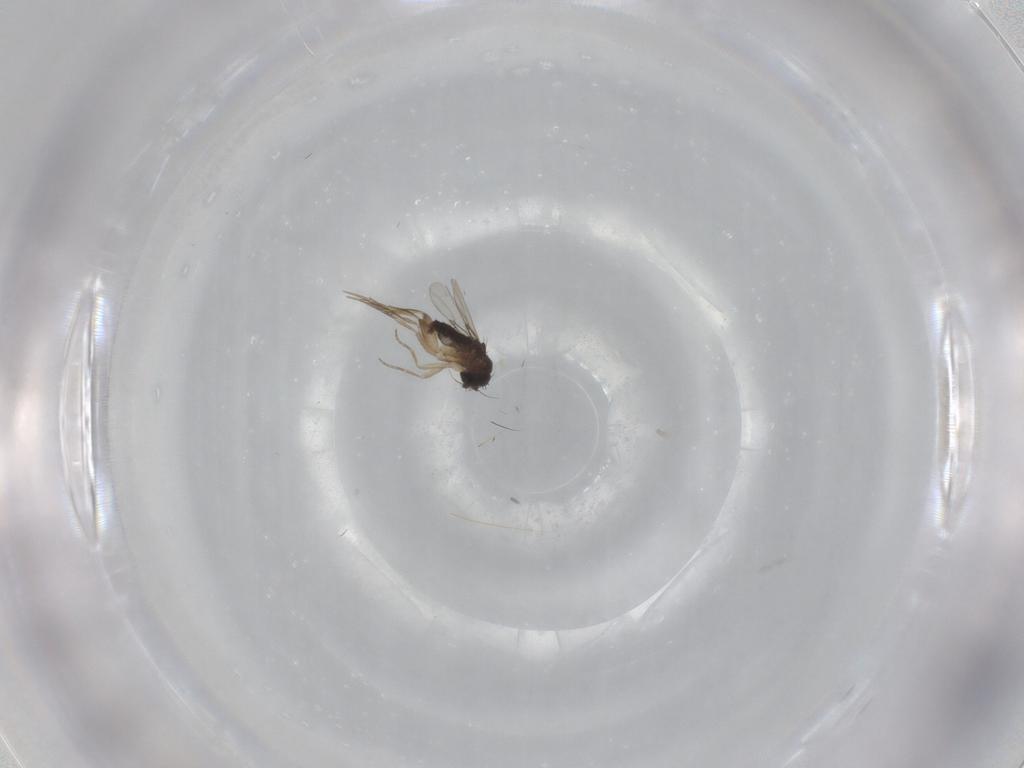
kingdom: Animalia
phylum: Arthropoda
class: Insecta
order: Diptera
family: Phoridae
